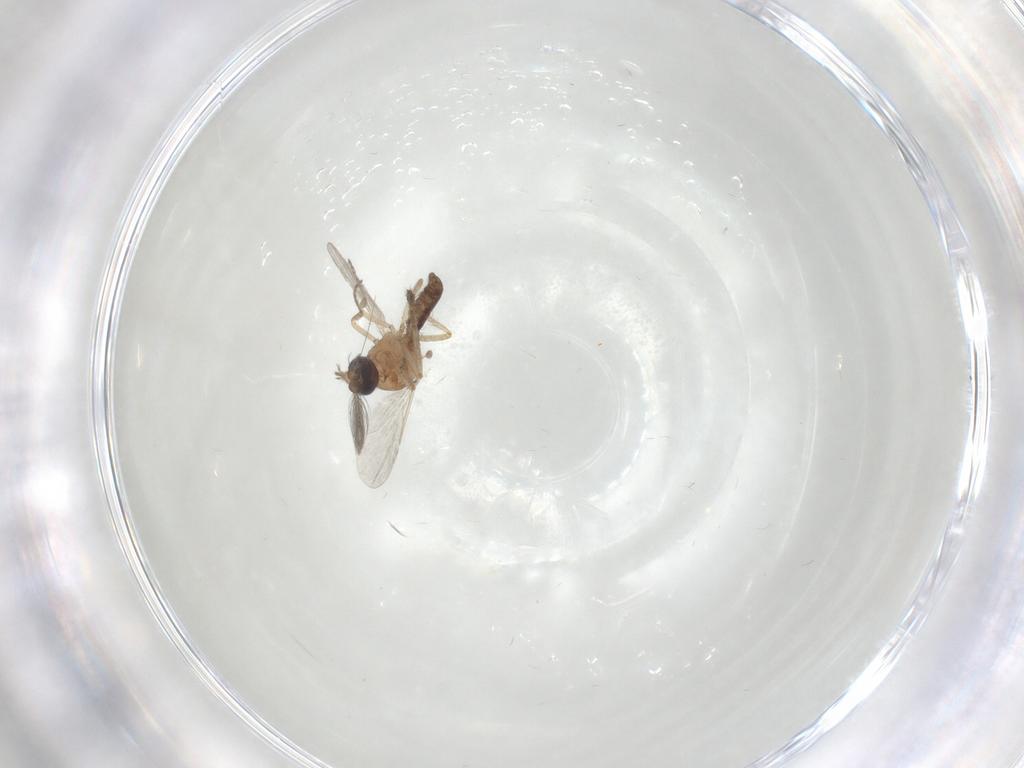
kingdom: Animalia
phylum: Arthropoda
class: Insecta
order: Diptera
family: Ceratopogonidae
